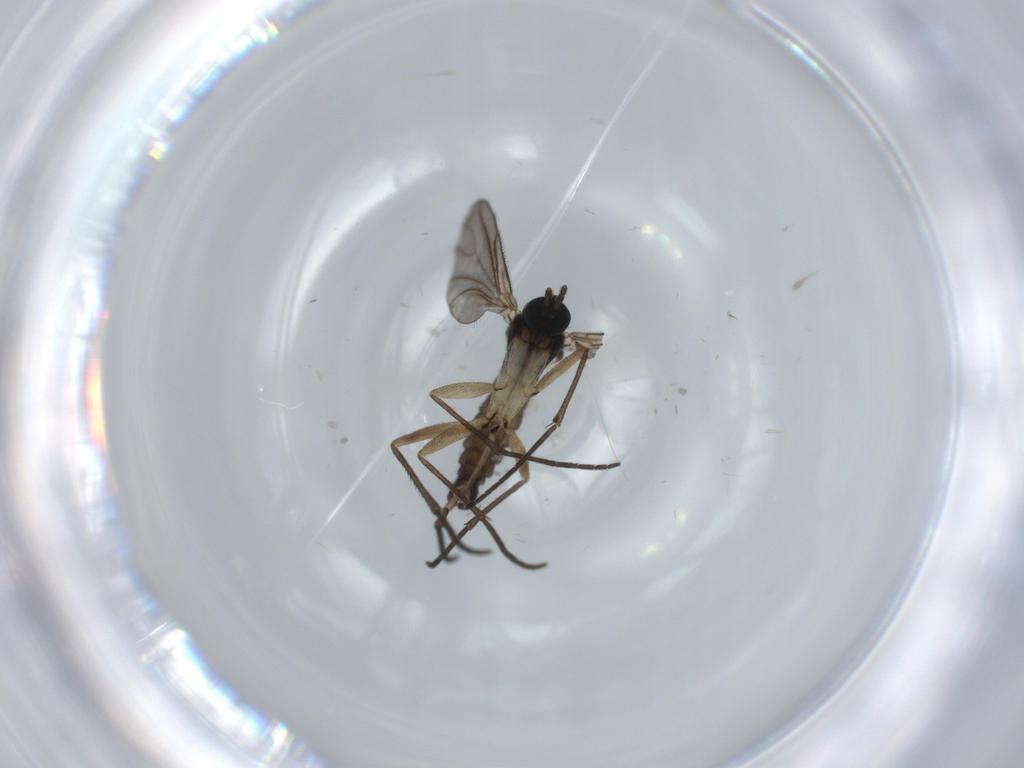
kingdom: Animalia
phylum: Arthropoda
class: Insecta
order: Diptera
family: Sciaridae
